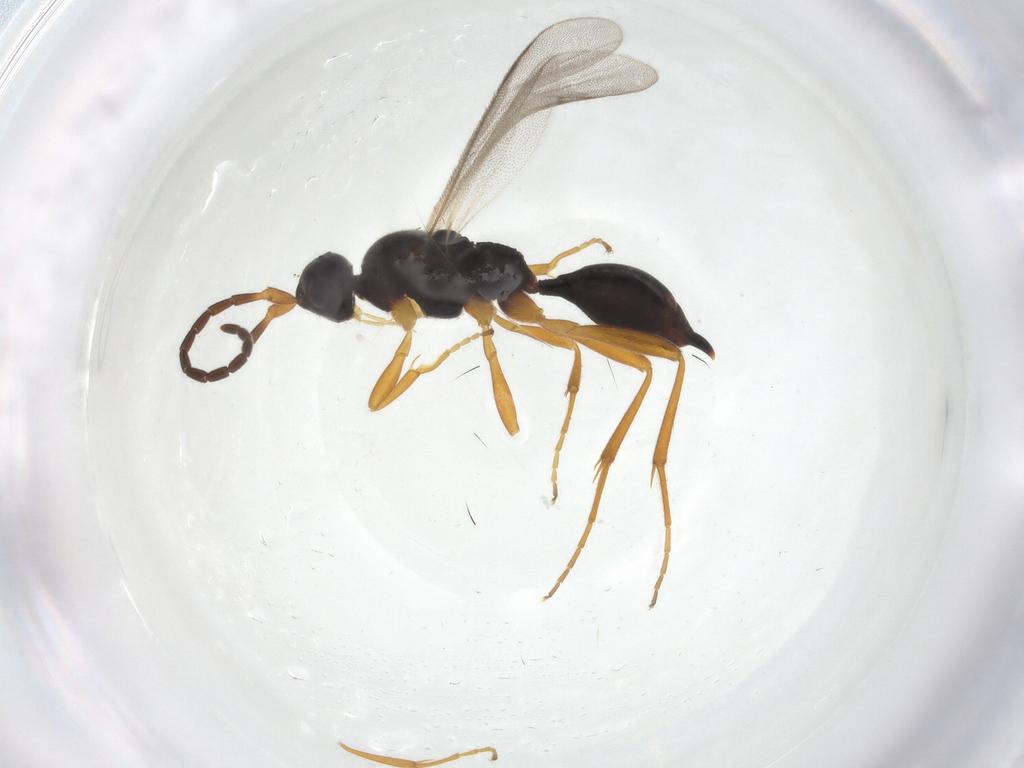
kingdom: Animalia
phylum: Arthropoda
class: Insecta
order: Hymenoptera
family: Proctotrupidae
